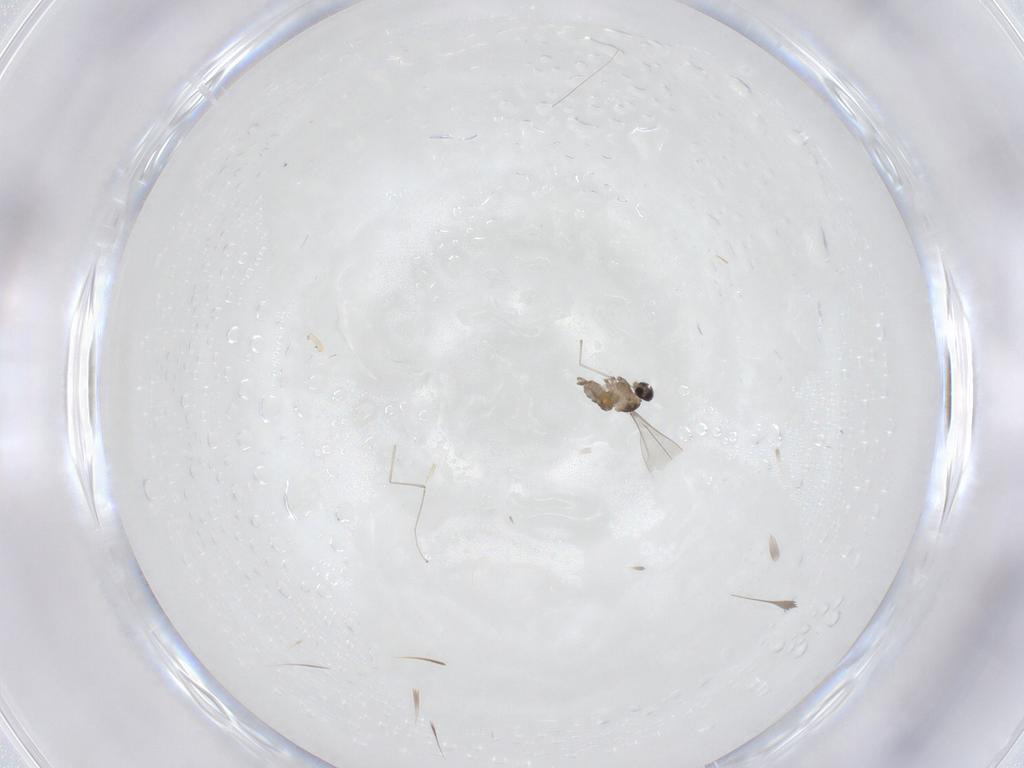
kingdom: Animalia
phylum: Arthropoda
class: Insecta
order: Diptera
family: Cecidomyiidae
